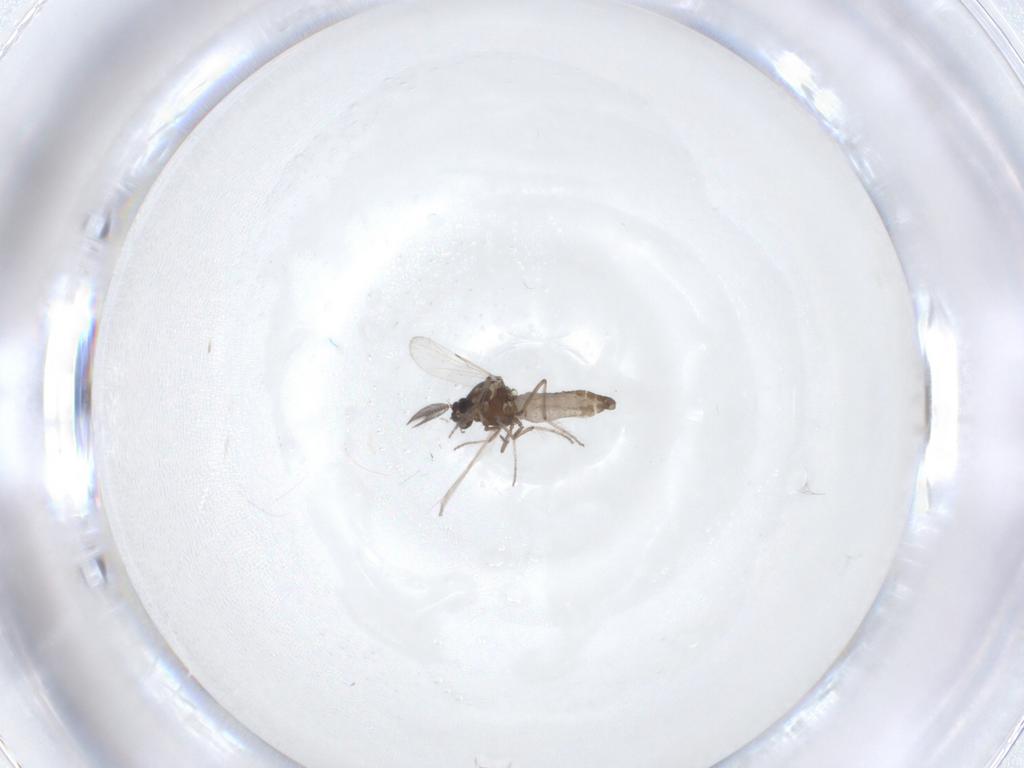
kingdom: Animalia
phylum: Arthropoda
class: Insecta
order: Diptera
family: Ceratopogonidae
